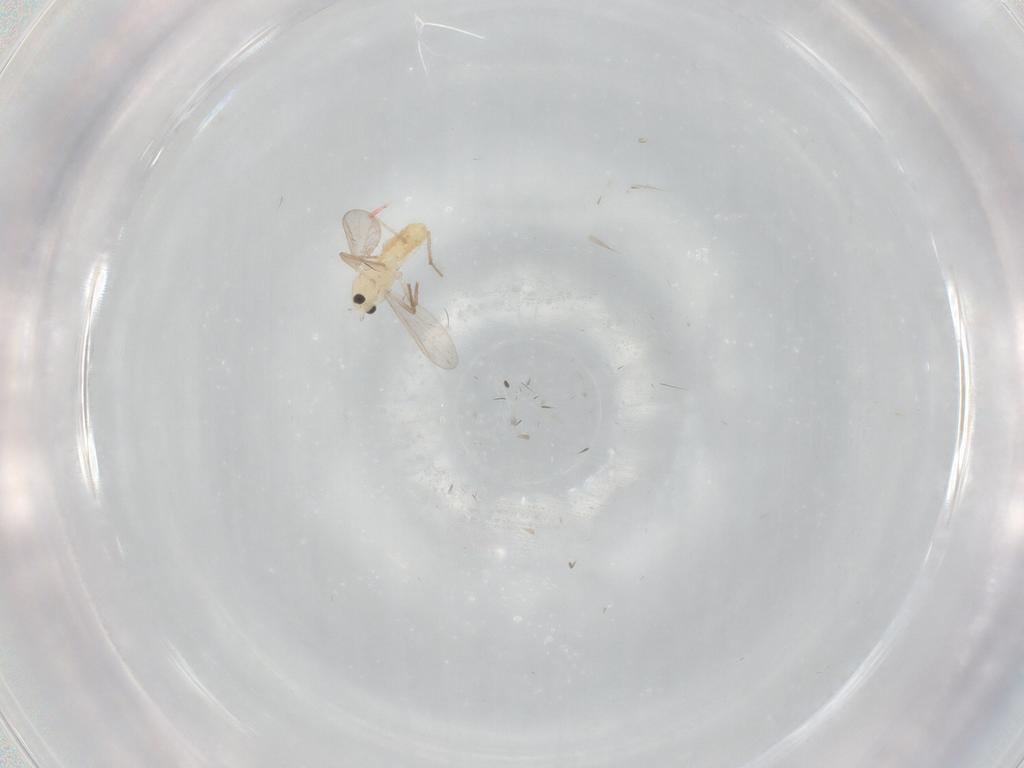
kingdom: Animalia
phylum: Arthropoda
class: Insecta
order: Diptera
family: Chironomidae
